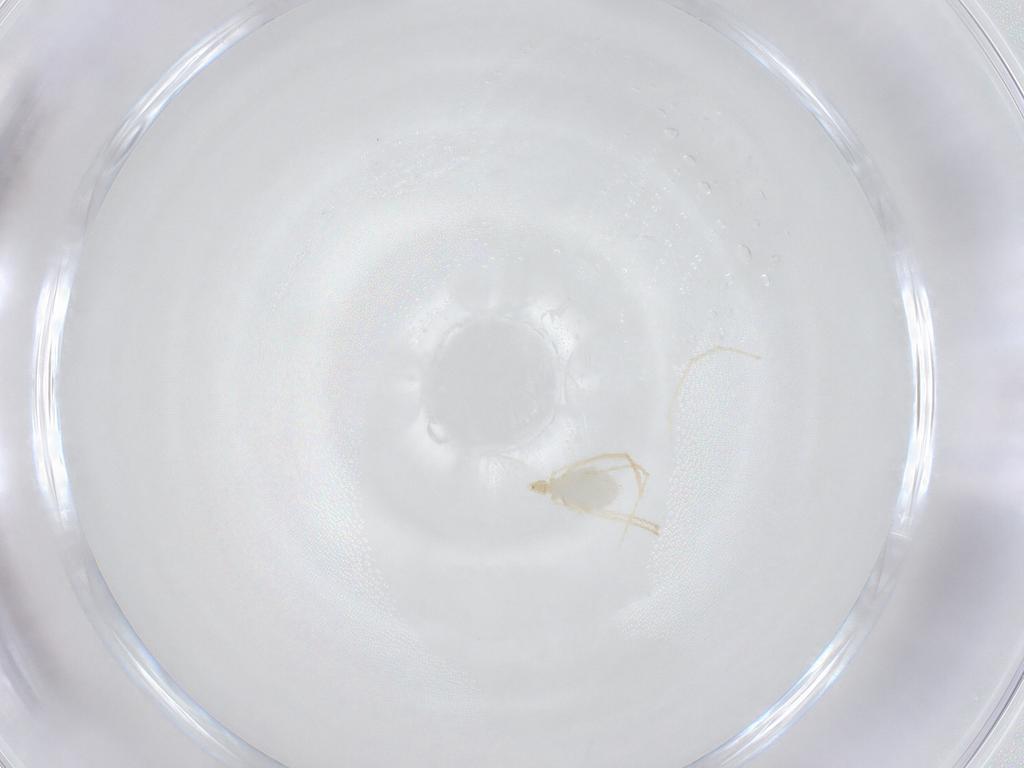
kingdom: Animalia
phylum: Arthropoda
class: Arachnida
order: Trombidiformes
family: Erythraeidae
